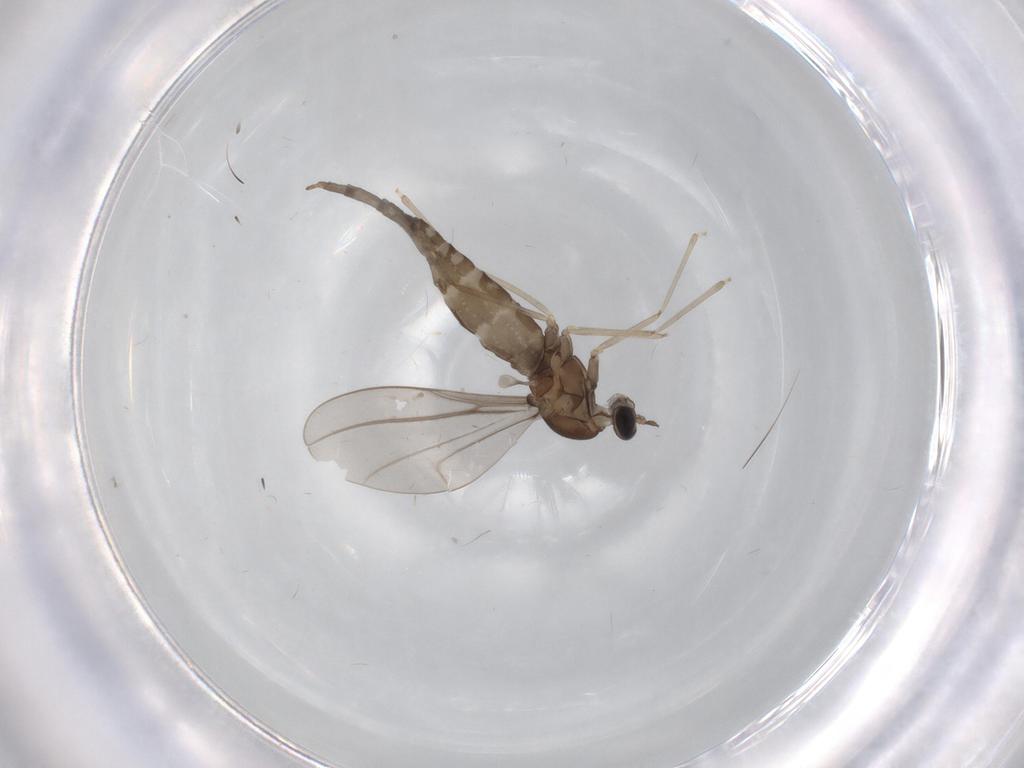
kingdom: Animalia
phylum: Arthropoda
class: Insecta
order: Diptera
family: Cecidomyiidae
